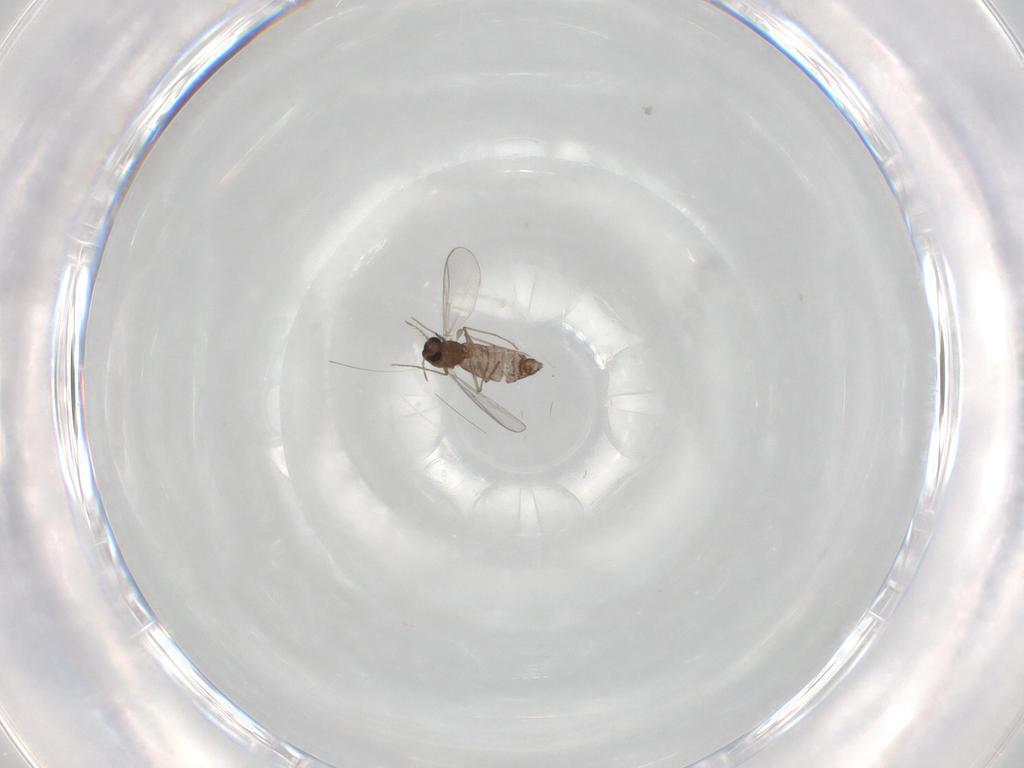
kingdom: Animalia
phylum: Arthropoda
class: Insecta
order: Diptera
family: Chironomidae
